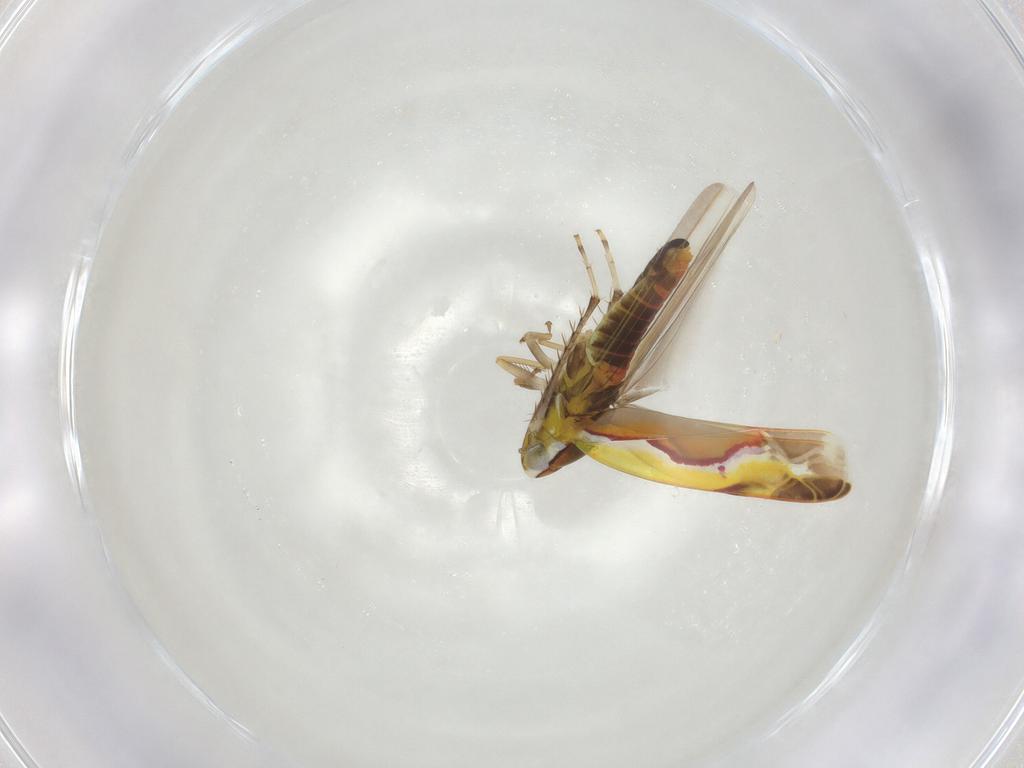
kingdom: Animalia
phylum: Arthropoda
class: Insecta
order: Hemiptera
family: Cicadellidae
